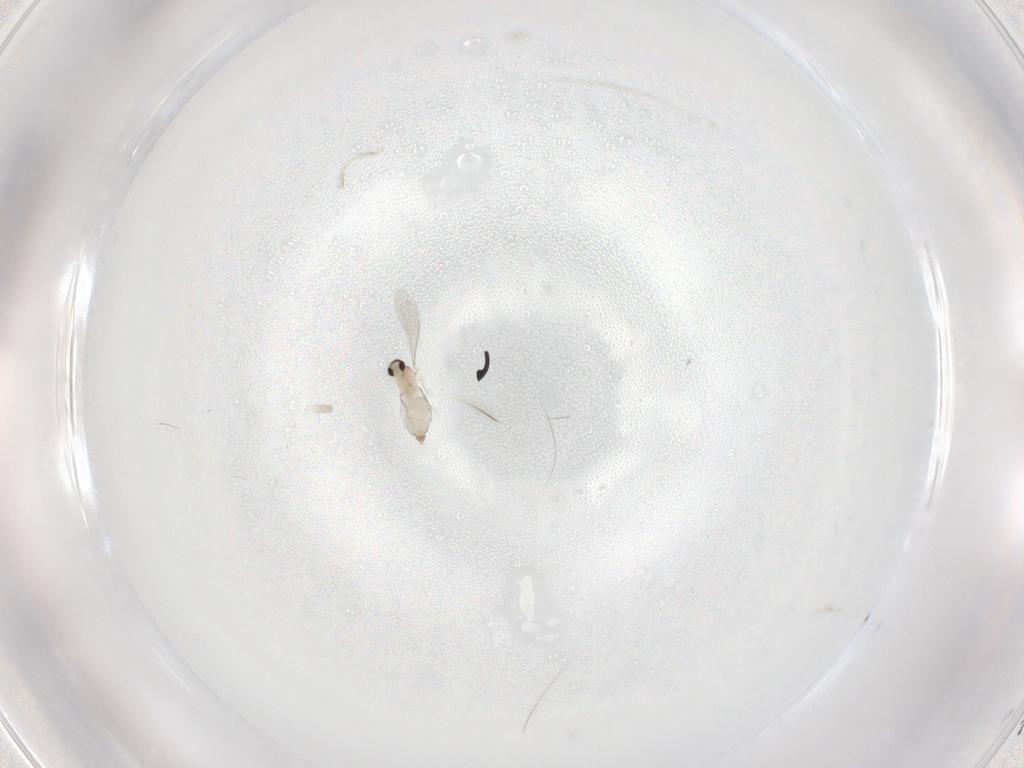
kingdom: Animalia
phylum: Arthropoda
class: Insecta
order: Diptera
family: Cecidomyiidae
